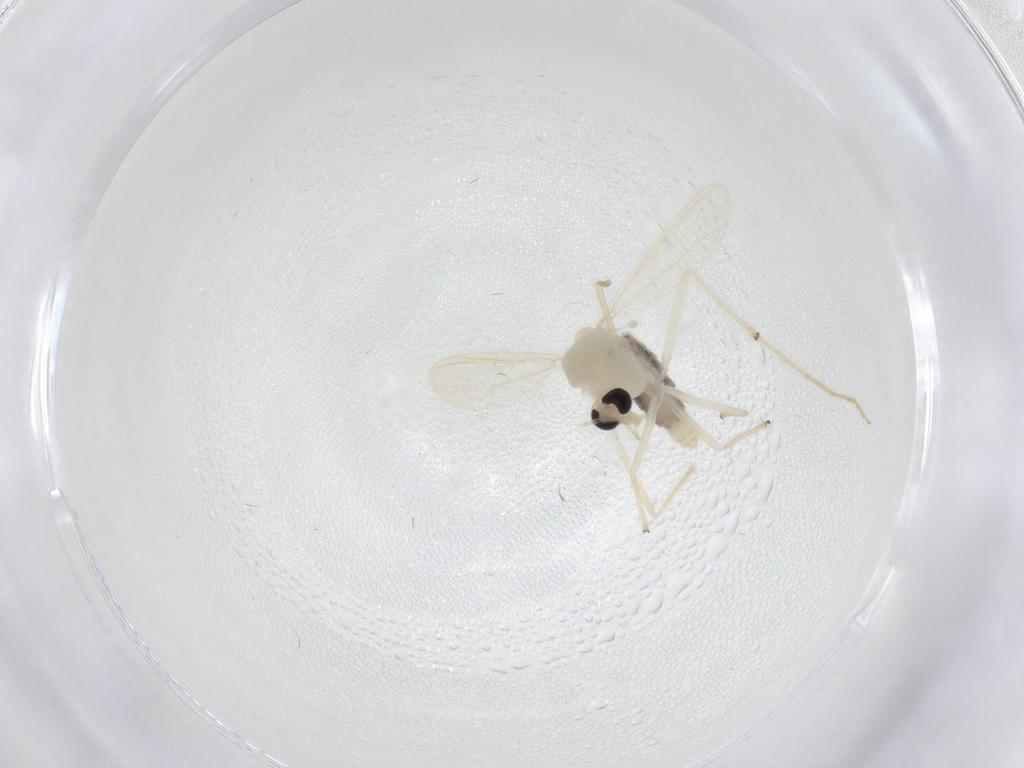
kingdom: Animalia
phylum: Arthropoda
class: Insecta
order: Diptera
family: Chironomidae
